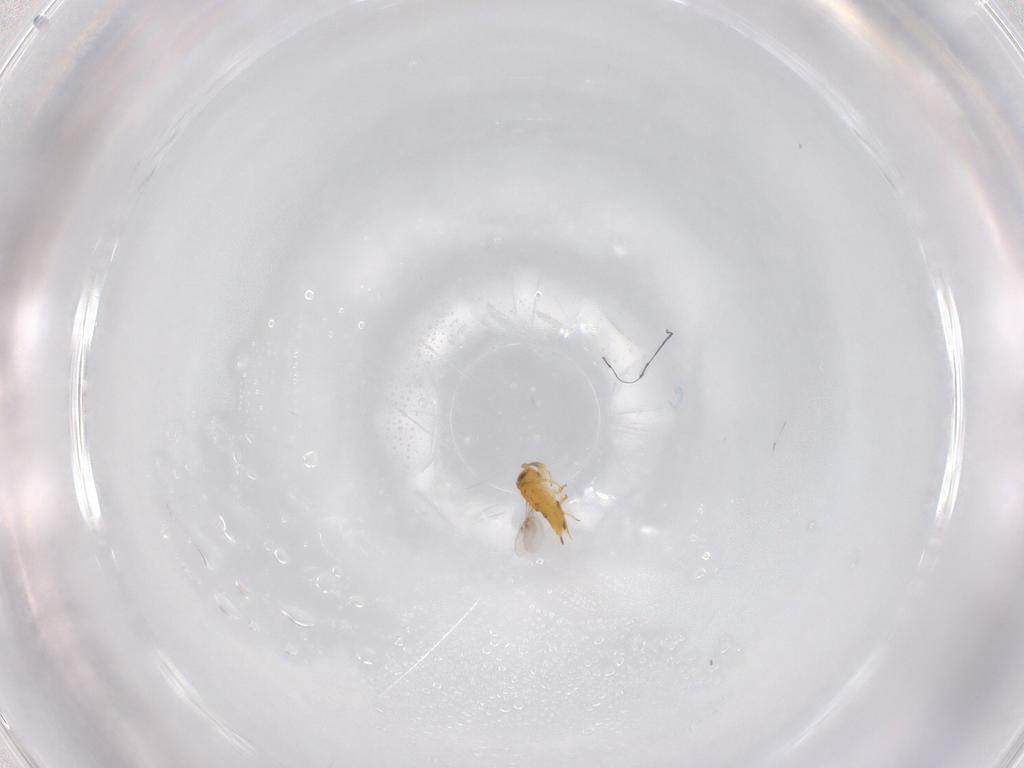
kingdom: Animalia
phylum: Arthropoda
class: Insecta
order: Hymenoptera
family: Encyrtidae
